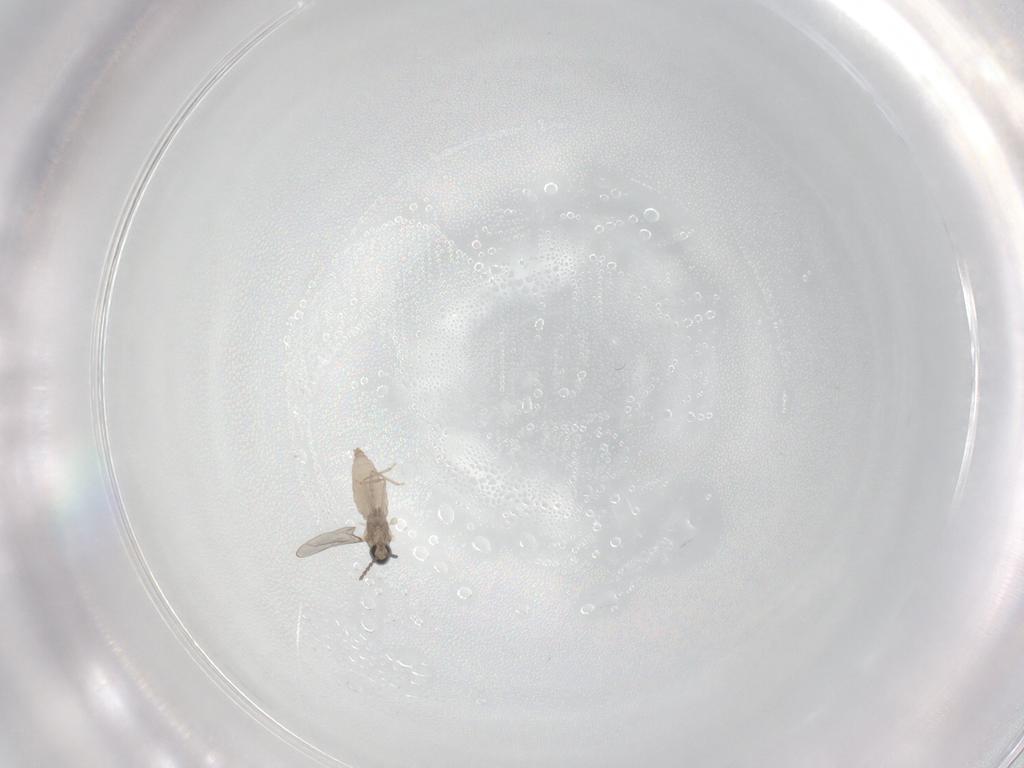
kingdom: Animalia
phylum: Arthropoda
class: Insecta
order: Diptera
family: Cecidomyiidae
